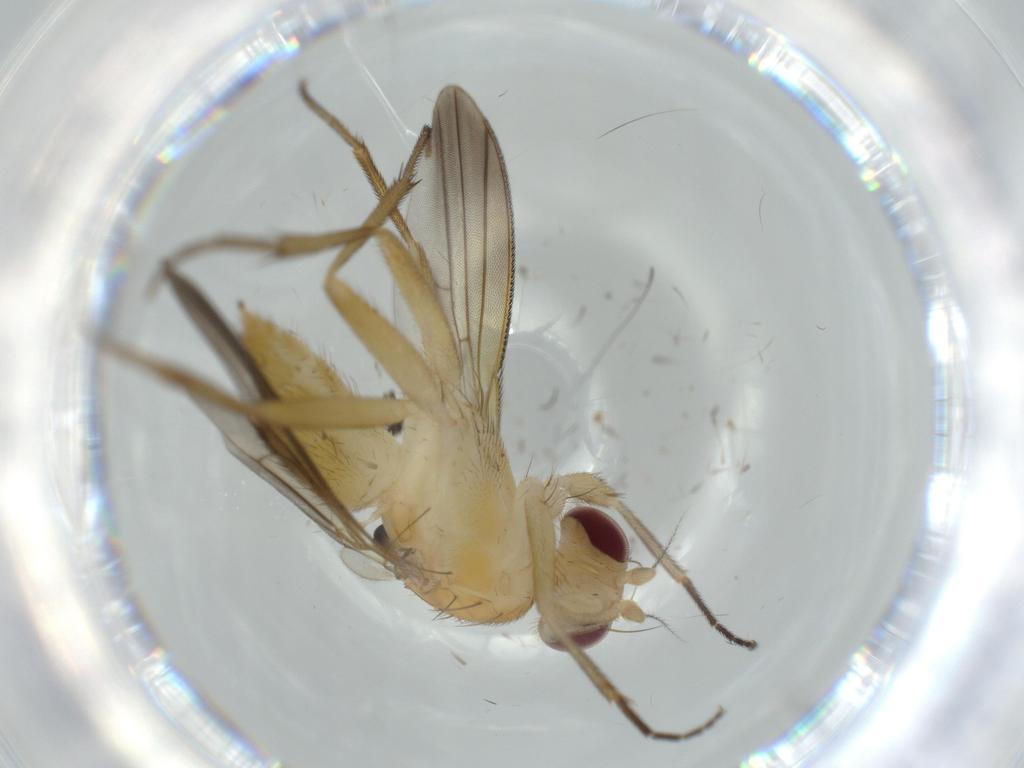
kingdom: Animalia
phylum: Arthropoda
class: Insecta
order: Diptera
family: Clusiidae
